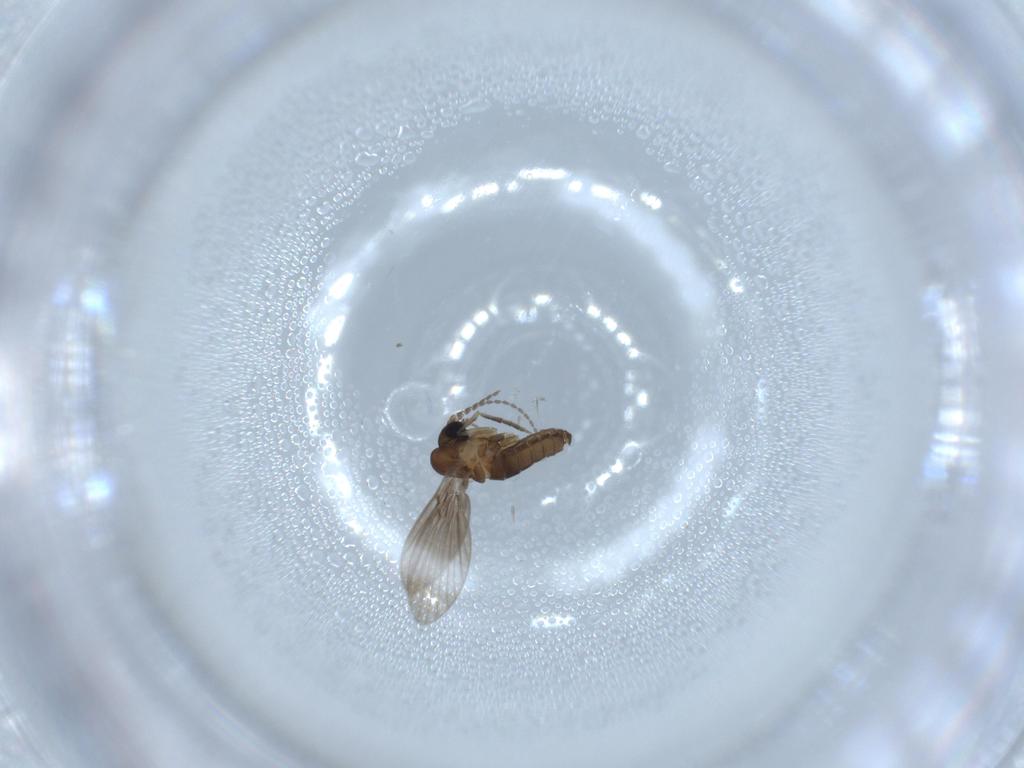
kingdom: Animalia
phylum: Arthropoda
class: Insecta
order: Diptera
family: Psychodidae
